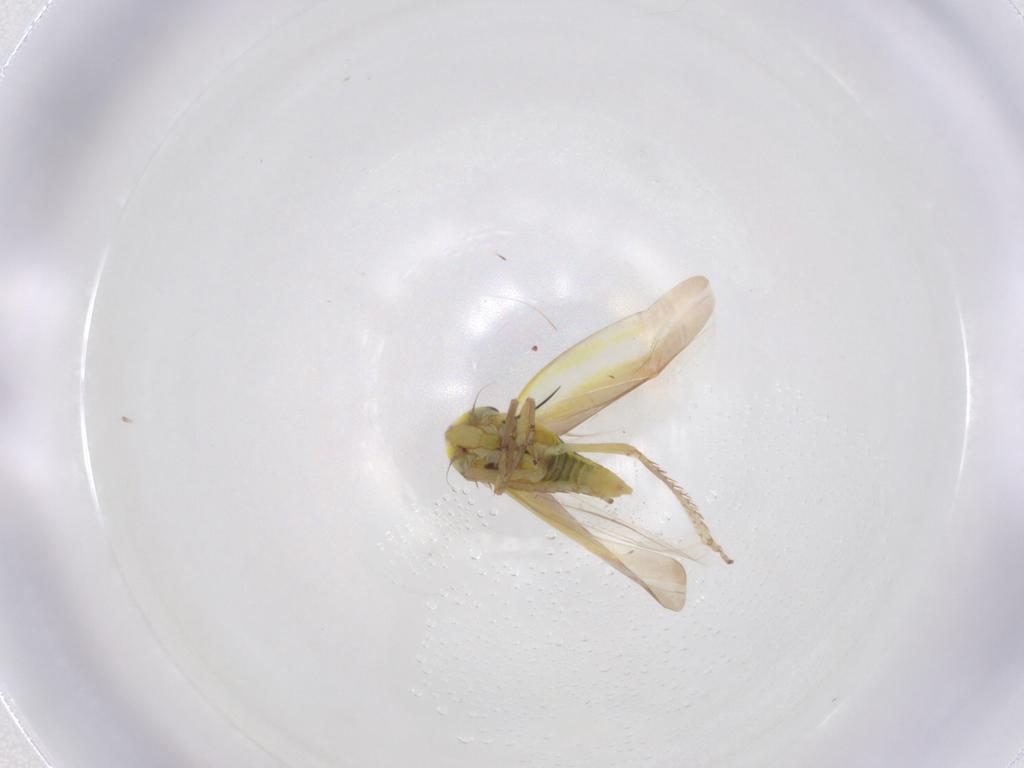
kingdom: Animalia
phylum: Arthropoda
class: Insecta
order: Hemiptera
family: Cicadellidae
